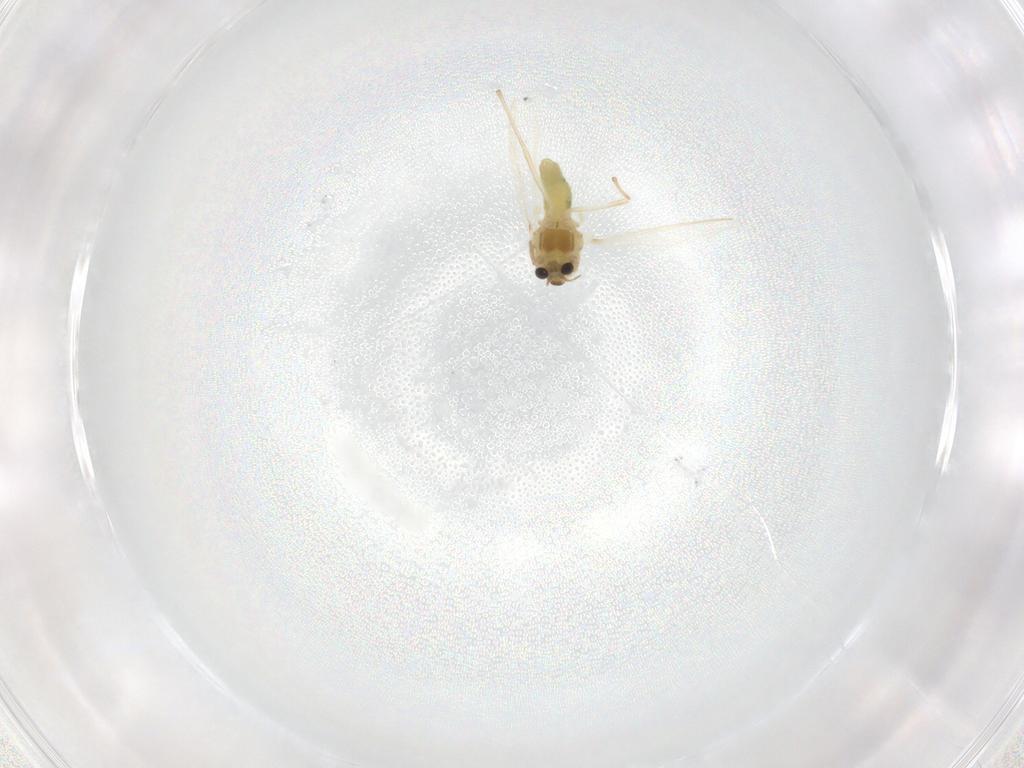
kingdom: Animalia
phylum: Arthropoda
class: Insecta
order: Diptera
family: Chironomidae
